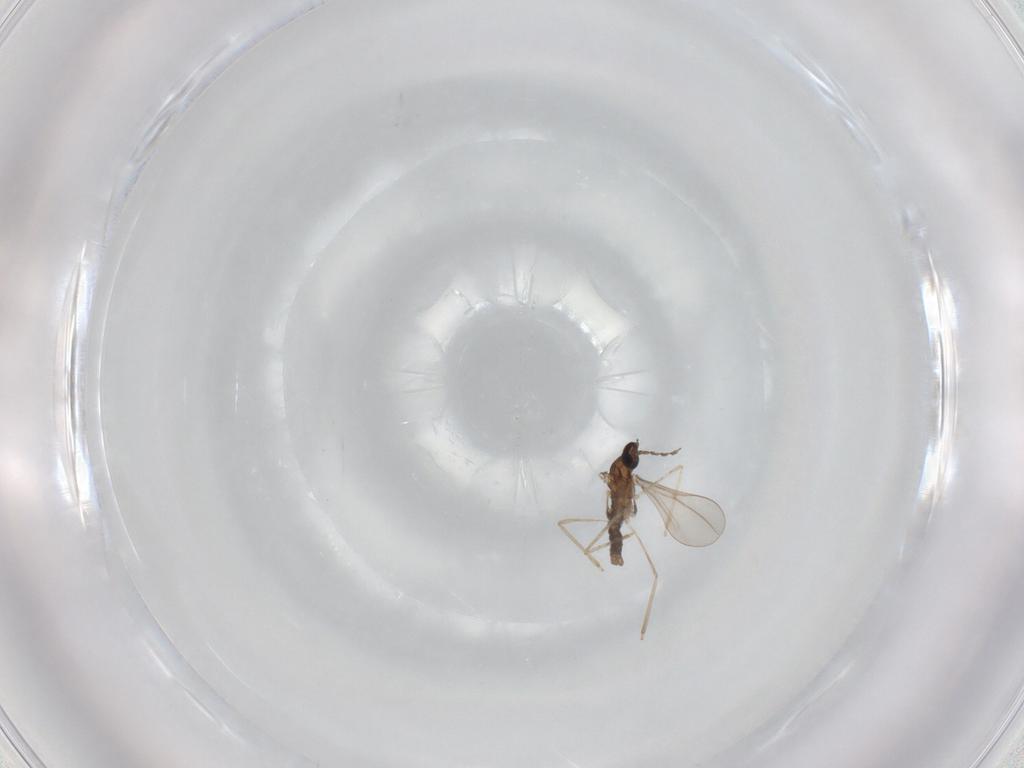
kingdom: Animalia
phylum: Arthropoda
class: Insecta
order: Diptera
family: Cecidomyiidae
